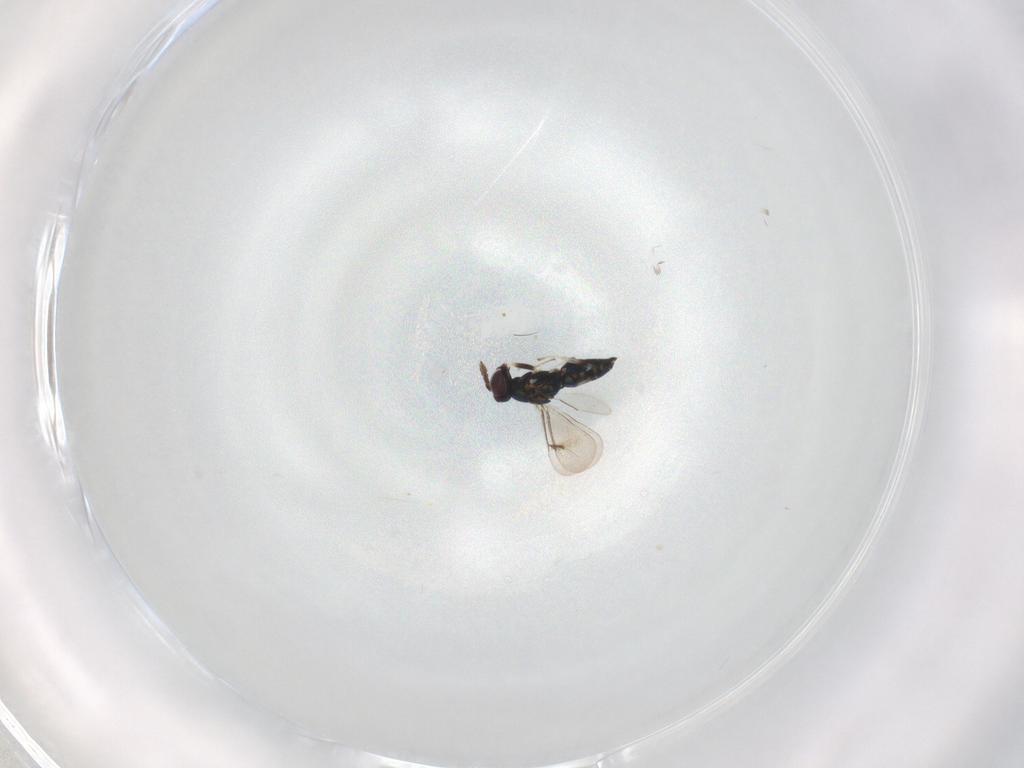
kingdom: Animalia
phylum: Arthropoda
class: Insecta
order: Hymenoptera
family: Eulophidae
